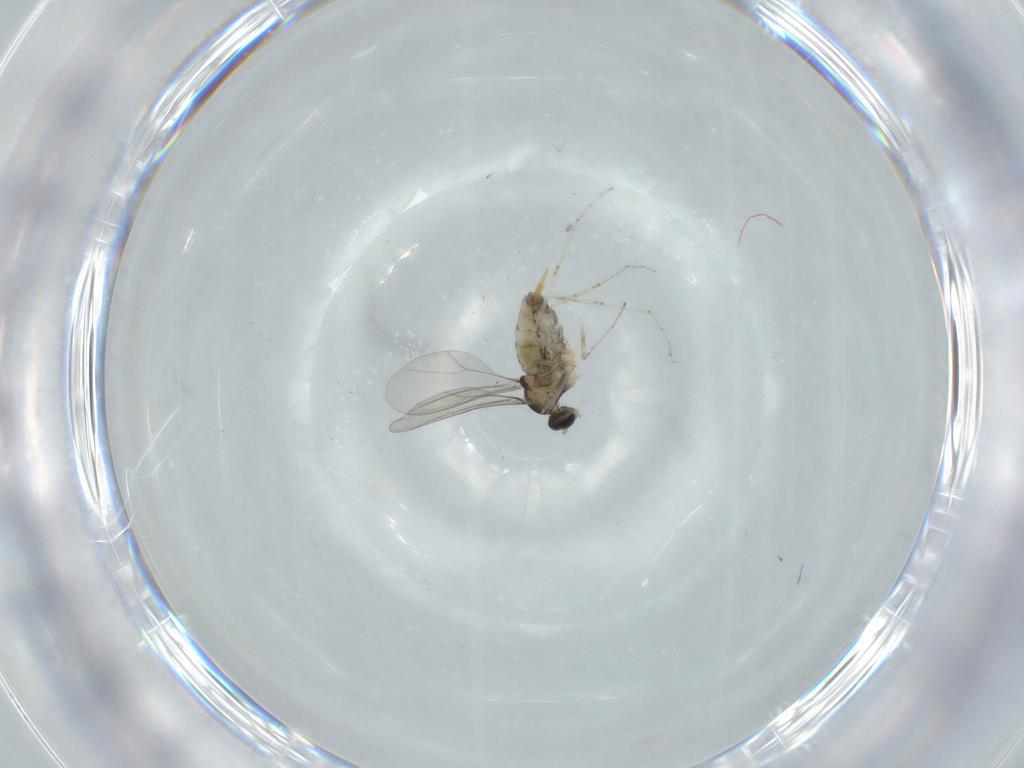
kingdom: Animalia
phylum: Arthropoda
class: Insecta
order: Diptera
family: Cecidomyiidae
